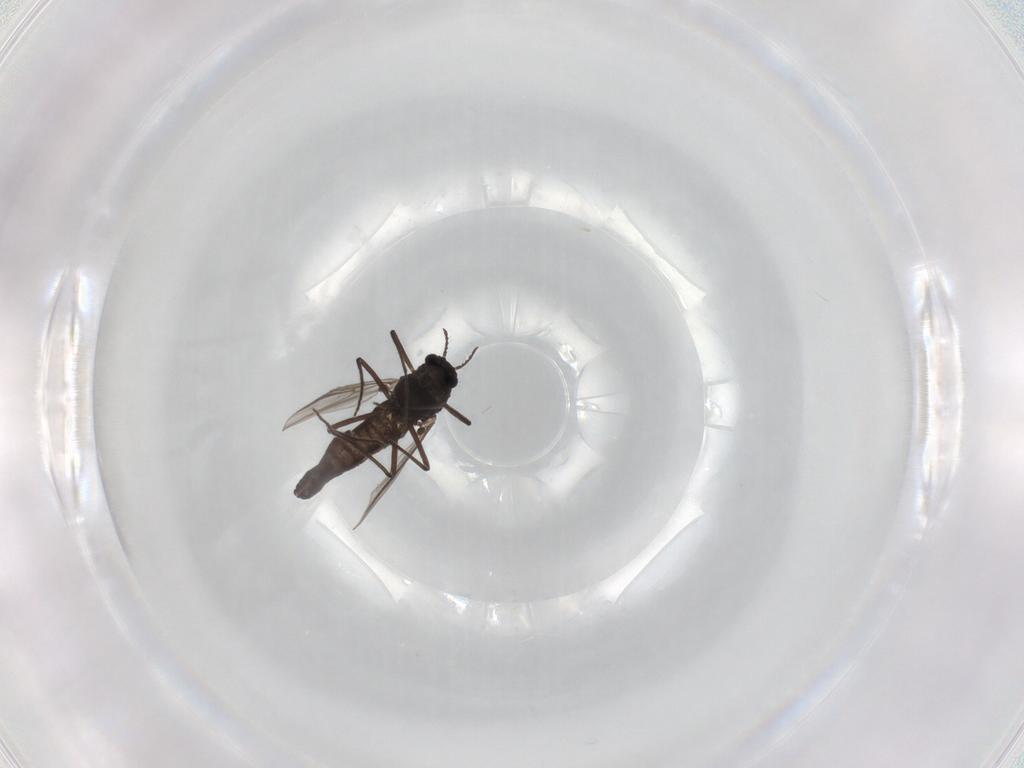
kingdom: Animalia
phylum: Arthropoda
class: Insecta
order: Diptera
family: Chironomidae
